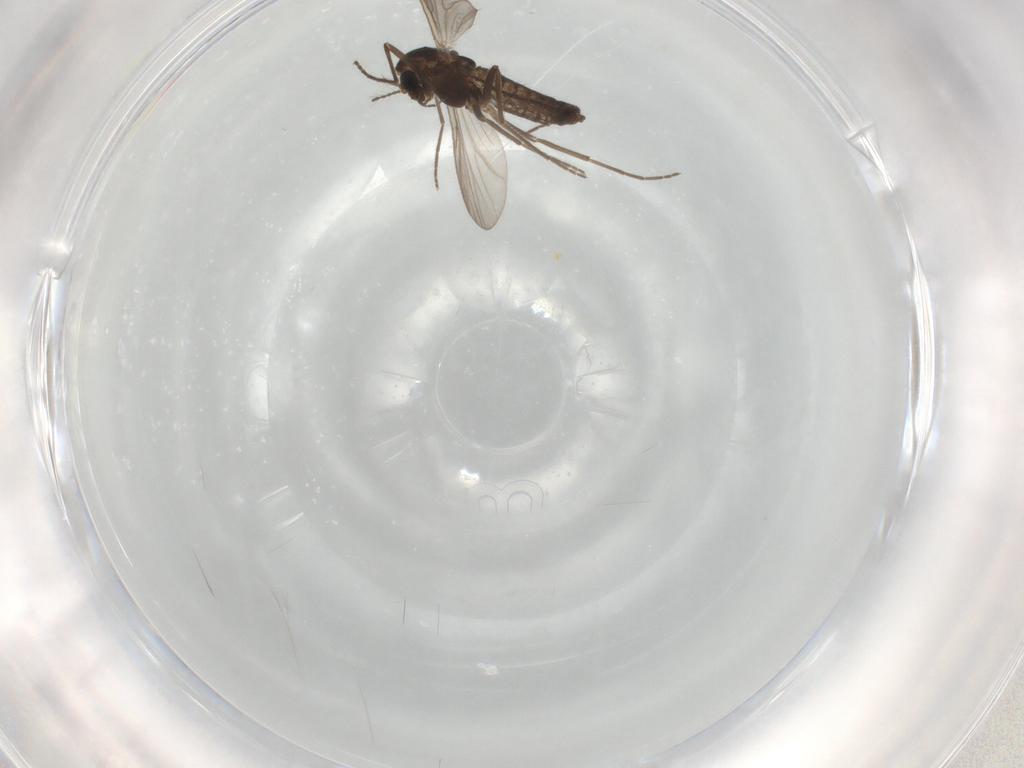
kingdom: Animalia
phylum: Arthropoda
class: Insecta
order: Diptera
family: Chironomidae
